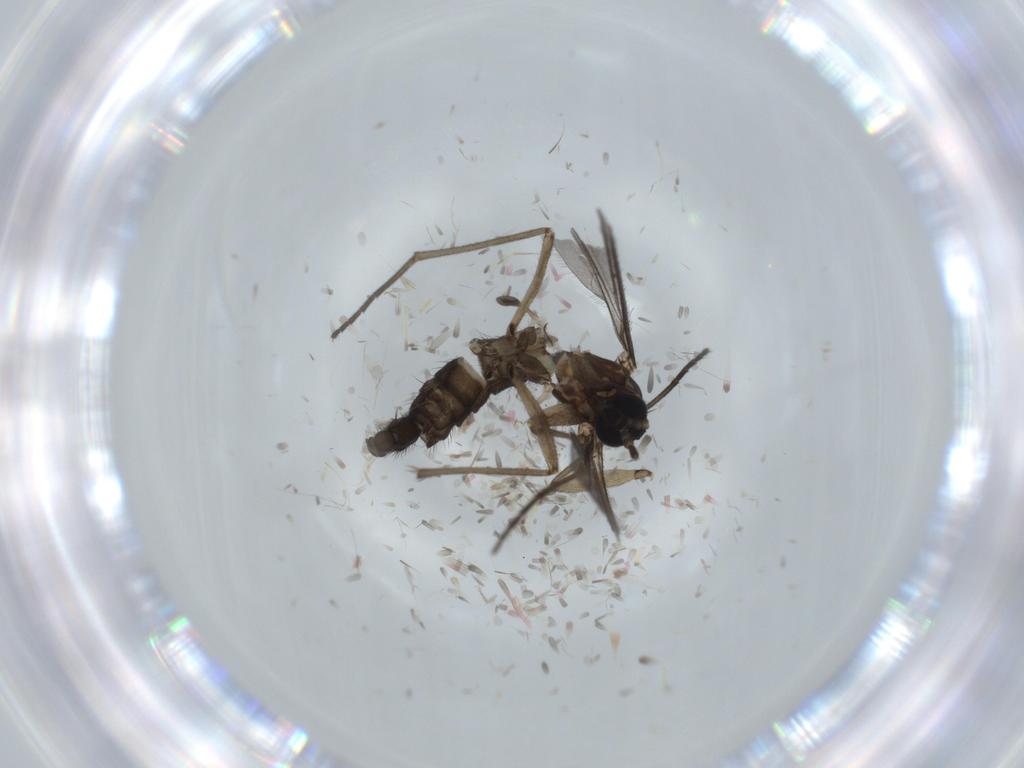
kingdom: Animalia
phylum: Arthropoda
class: Insecta
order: Diptera
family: Sciaridae
